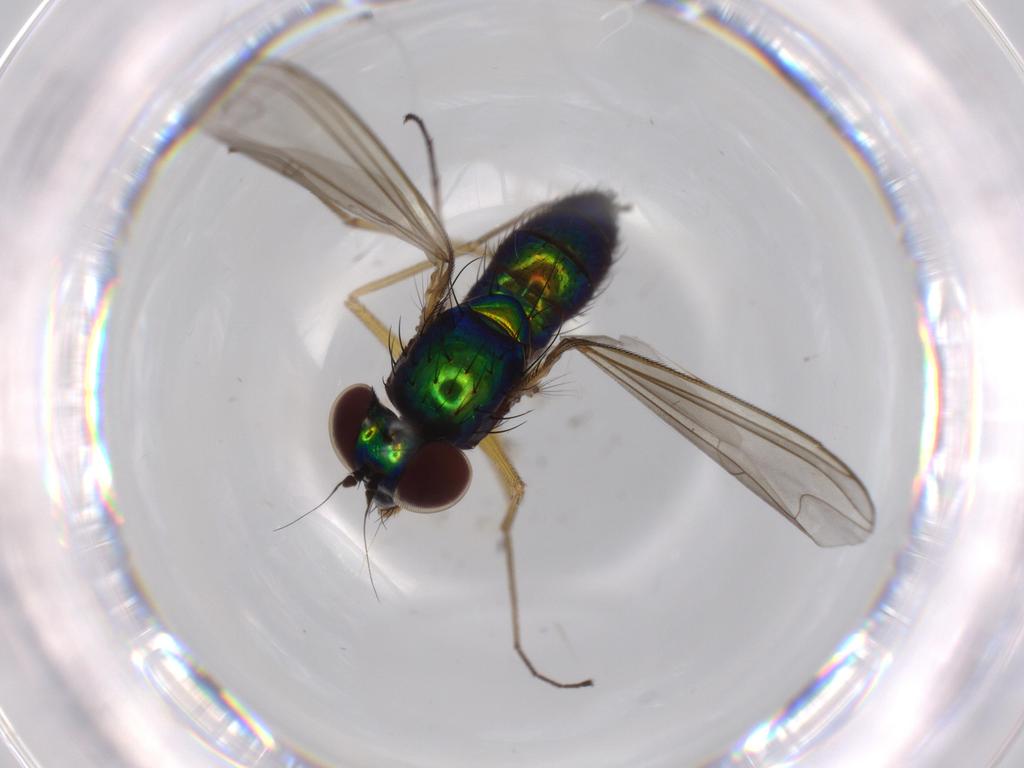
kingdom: Animalia
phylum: Arthropoda
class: Insecta
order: Diptera
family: Dolichopodidae
